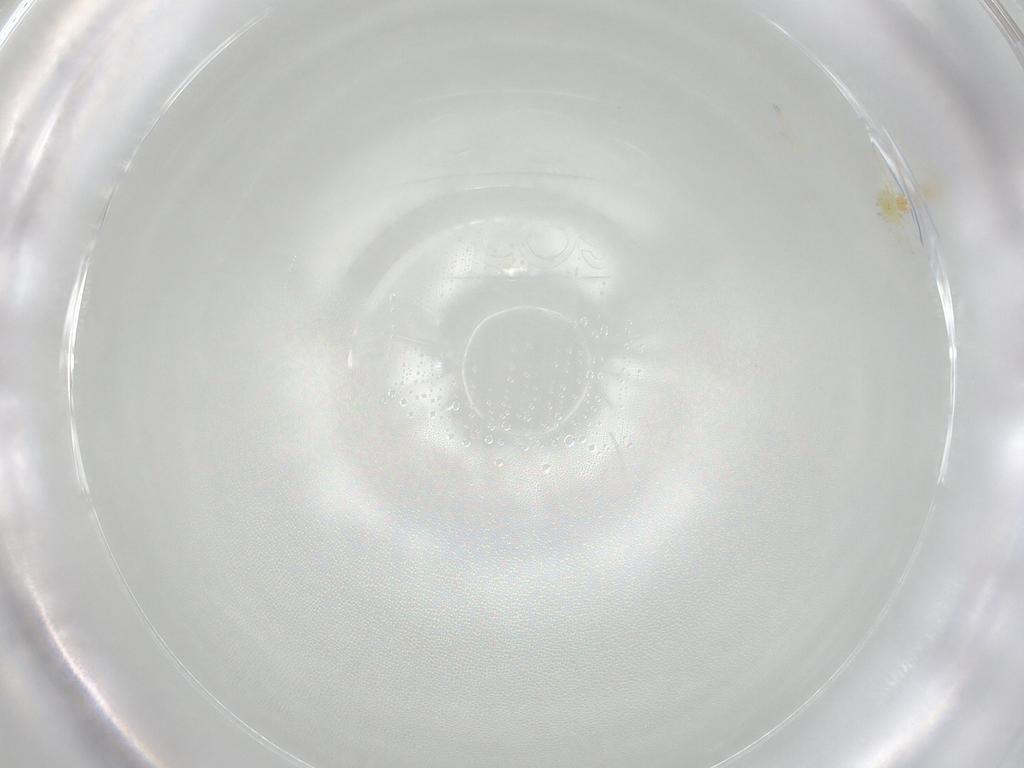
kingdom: Animalia
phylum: Arthropoda
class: Arachnida
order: Trombidiformes
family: Erythraeidae
